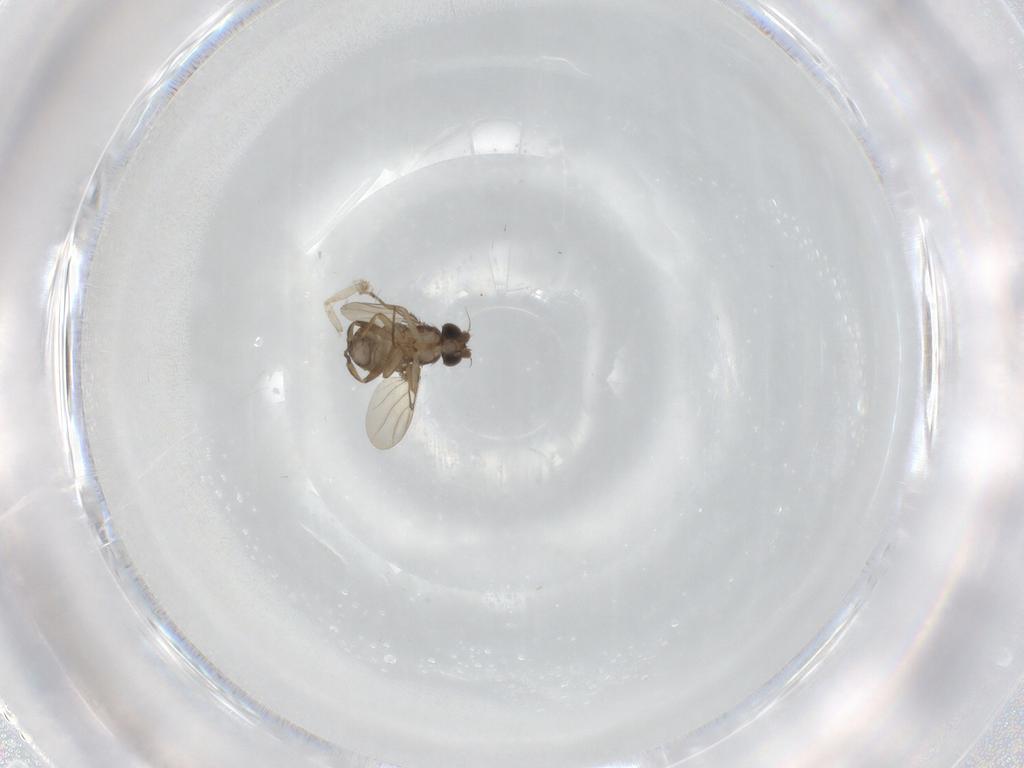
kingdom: Animalia
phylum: Arthropoda
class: Insecta
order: Diptera
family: Phoridae
